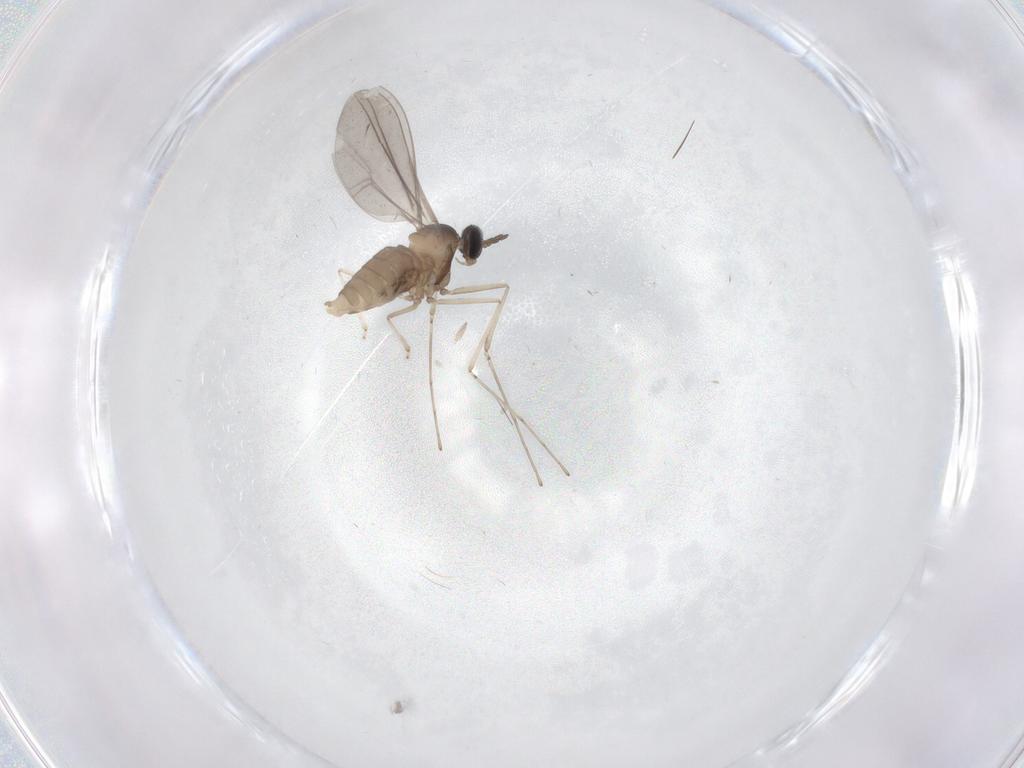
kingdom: Animalia
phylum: Arthropoda
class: Insecta
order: Diptera
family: Cecidomyiidae
